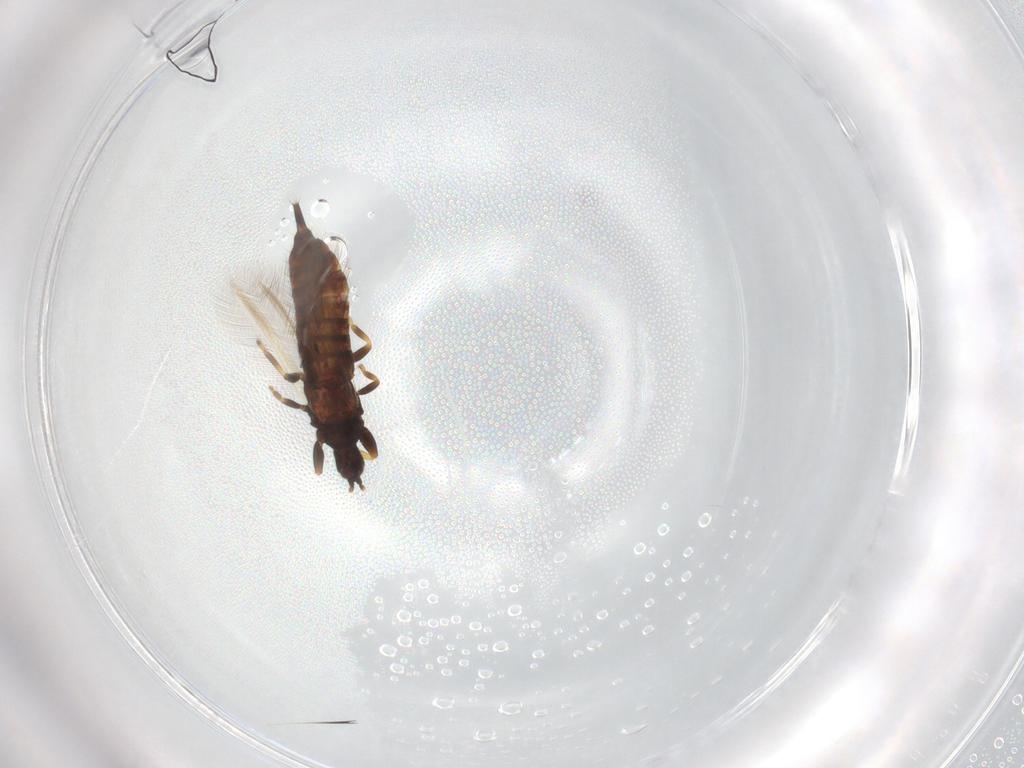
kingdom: Animalia
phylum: Arthropoda
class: Insecta
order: Thysanoptera
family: Phlaeothripidae
